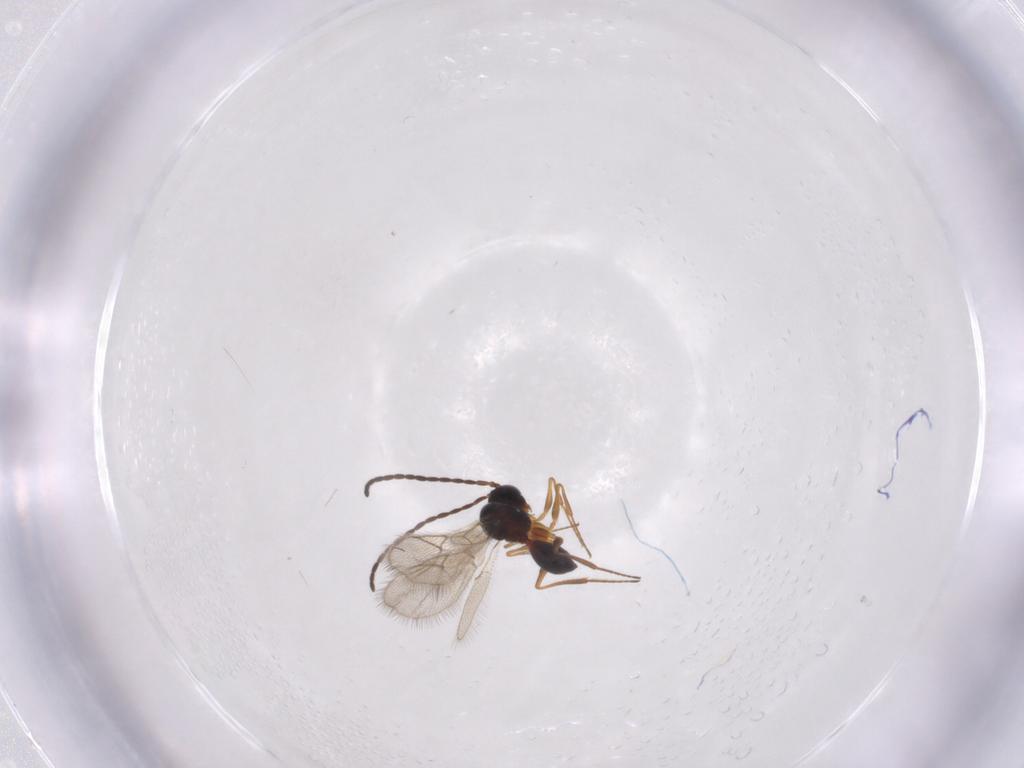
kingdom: Animalia
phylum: Arthropoda
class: Insecta
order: Hymenoptera
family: Figitidae
